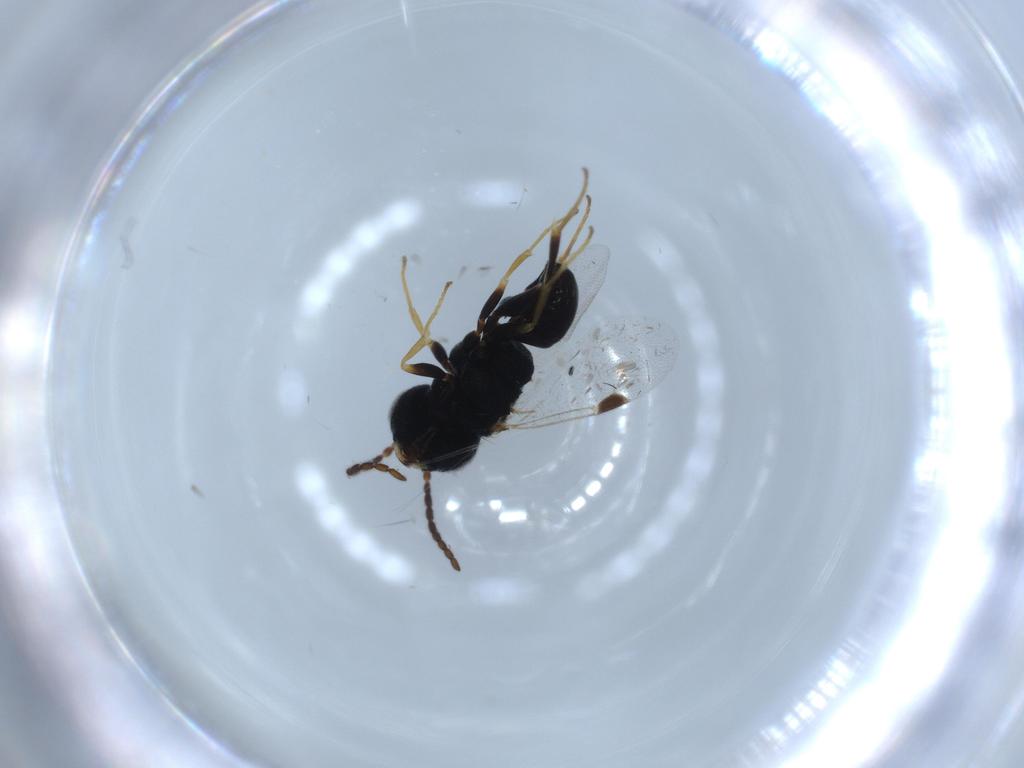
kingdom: Animalia
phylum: Arthropoda
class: Insecta
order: Hymenoptera
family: Dryinidae
